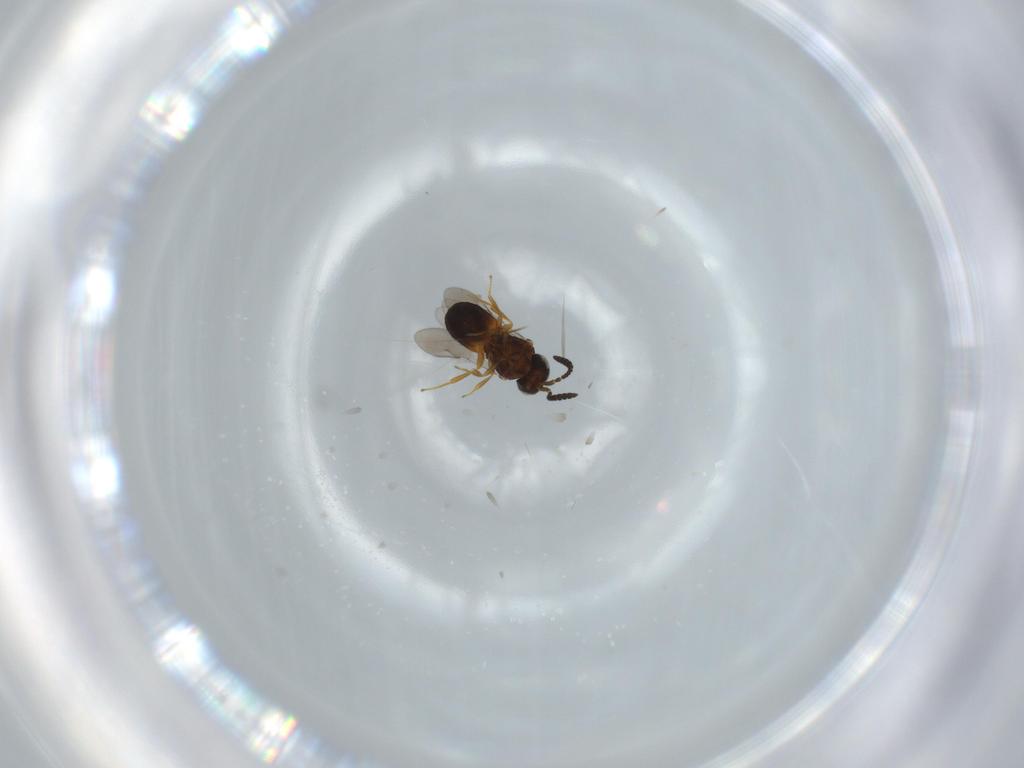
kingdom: Animalia
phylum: Arthropoda
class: Insecta
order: Hymenoptera
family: Scelionidae
